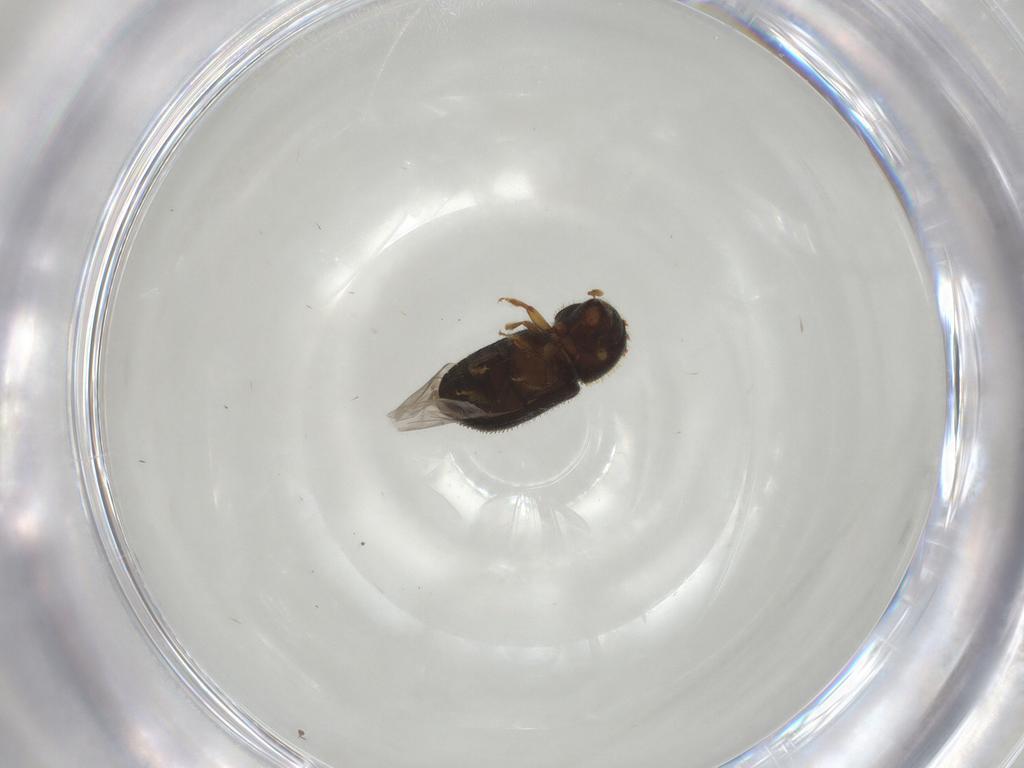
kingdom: Animalia
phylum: Arthropoda
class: Insecta
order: Coleoptera
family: Curculionidae
